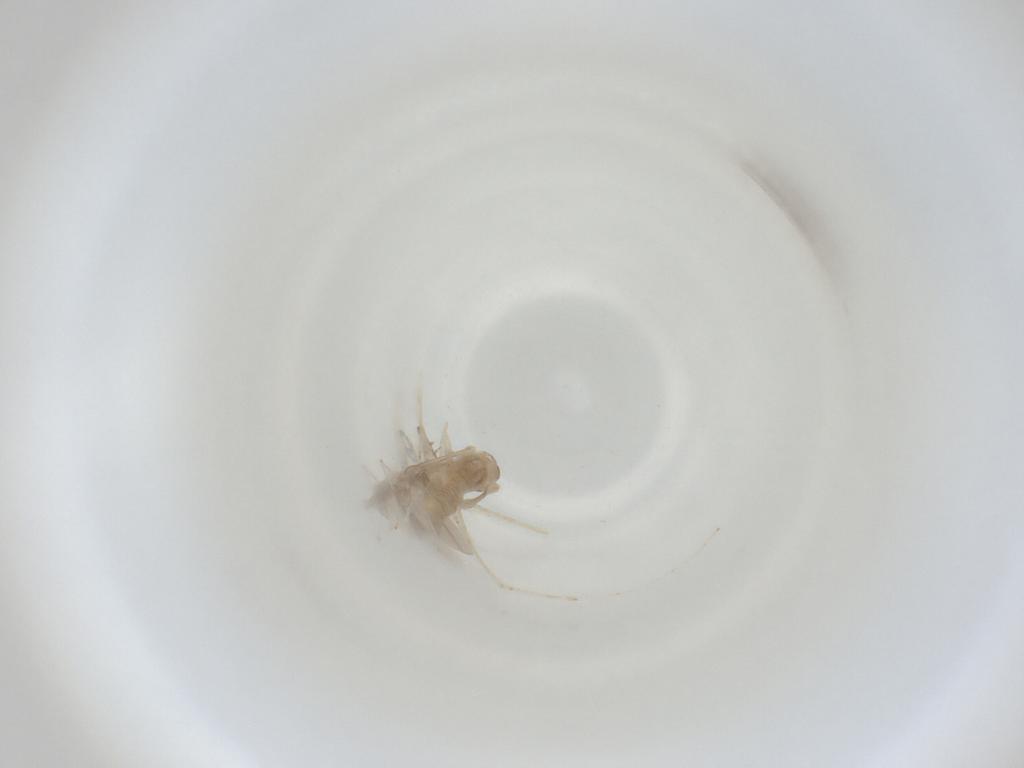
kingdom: Animalia
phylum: Arthropoda
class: Insecta
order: Diptera
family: Cecidomyiidae
